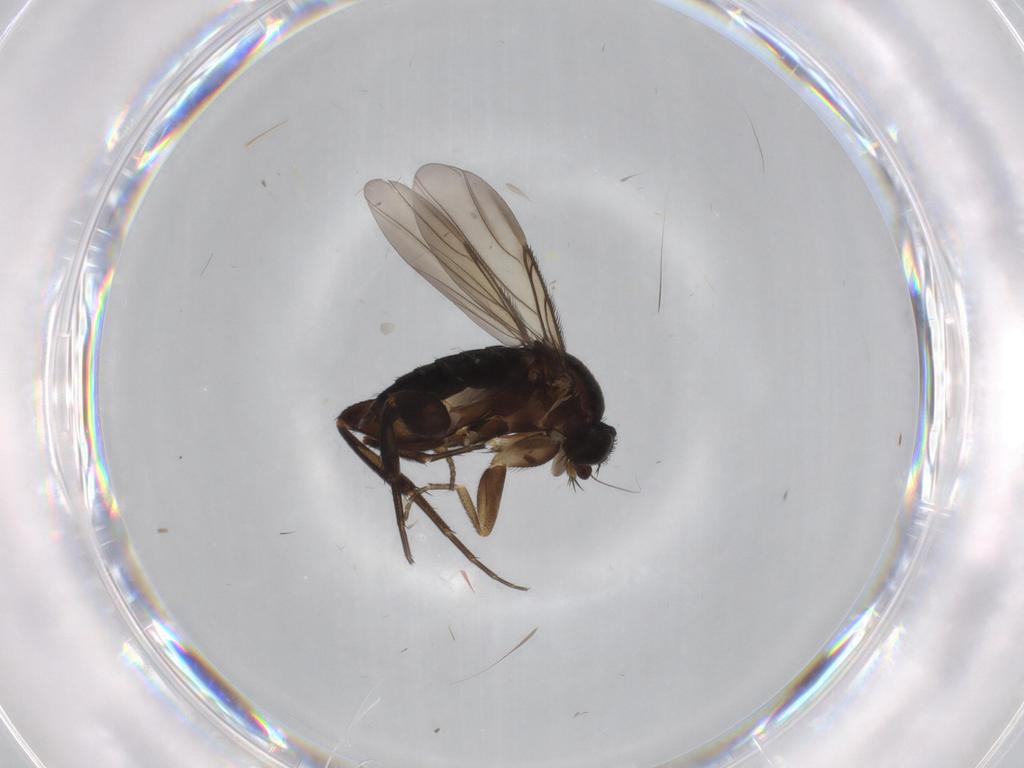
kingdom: Animalia
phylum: Arthropoda
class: Insecta
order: Diptera
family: Phoridae
